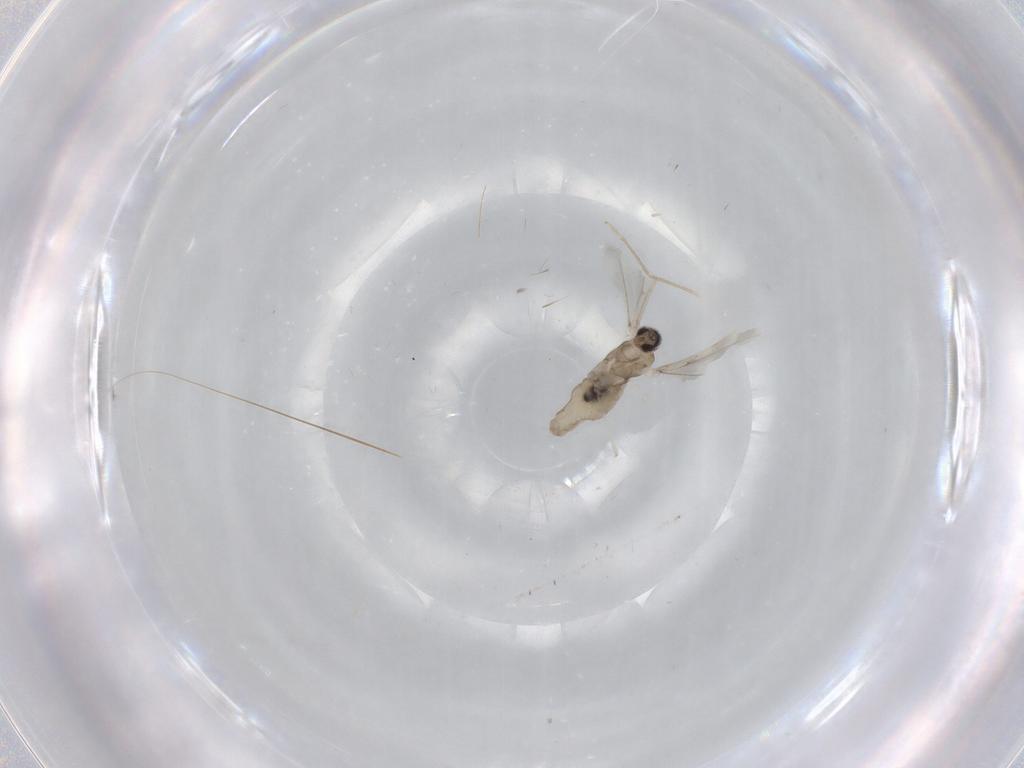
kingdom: Animalia
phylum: Arthropoda
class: Insecta
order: Diptera
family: Cecidomyiidae
